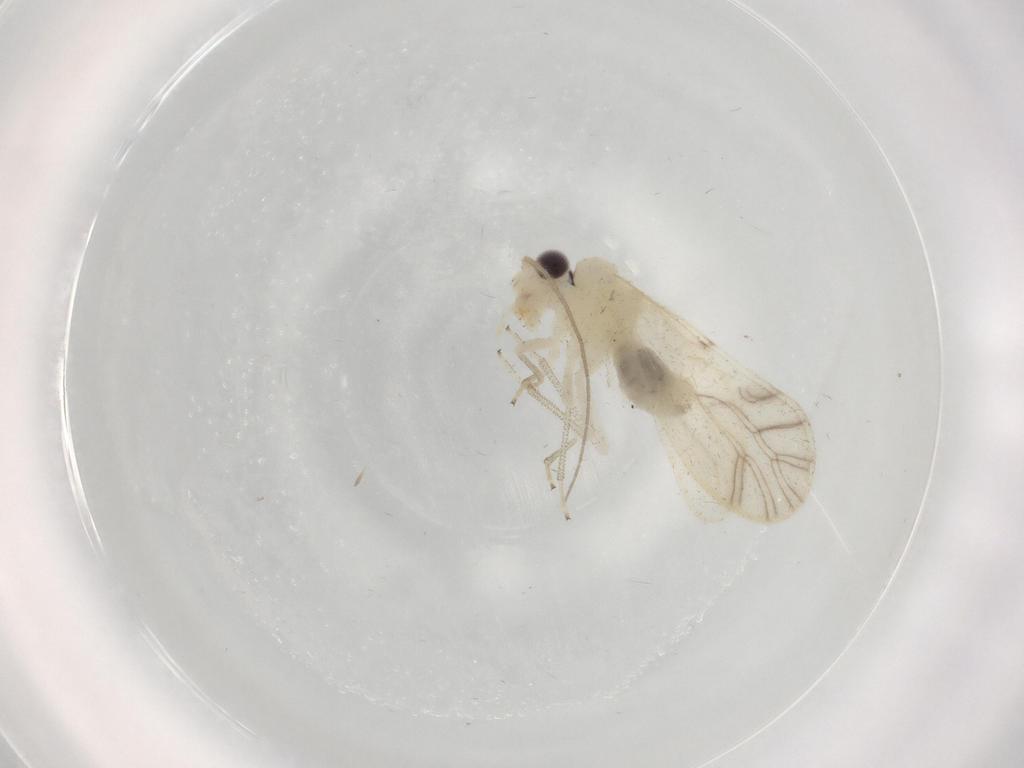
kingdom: Animalia
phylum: Arthropoda
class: Insecta
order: Psocodea
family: Caeciliusidae
